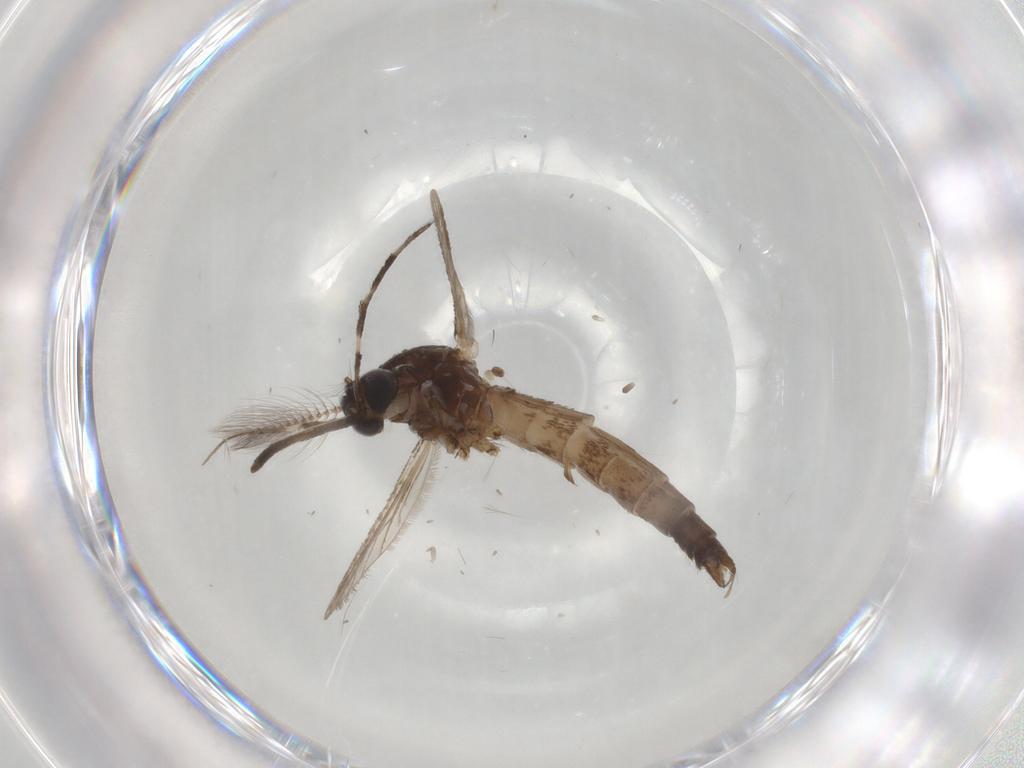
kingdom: Animalia
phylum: Arthropoda
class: Insecta
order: Diptera
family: Culicidae
